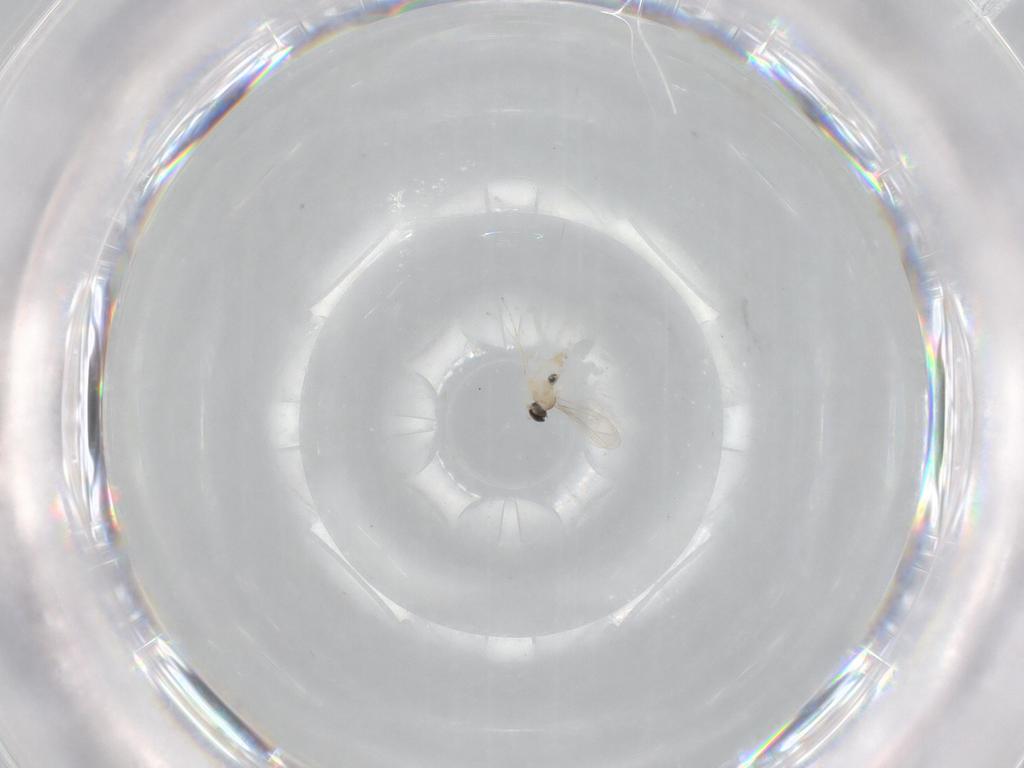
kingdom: Animalia
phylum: Arthropoda
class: Insecta
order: Diptera
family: Cecidomyiidae
